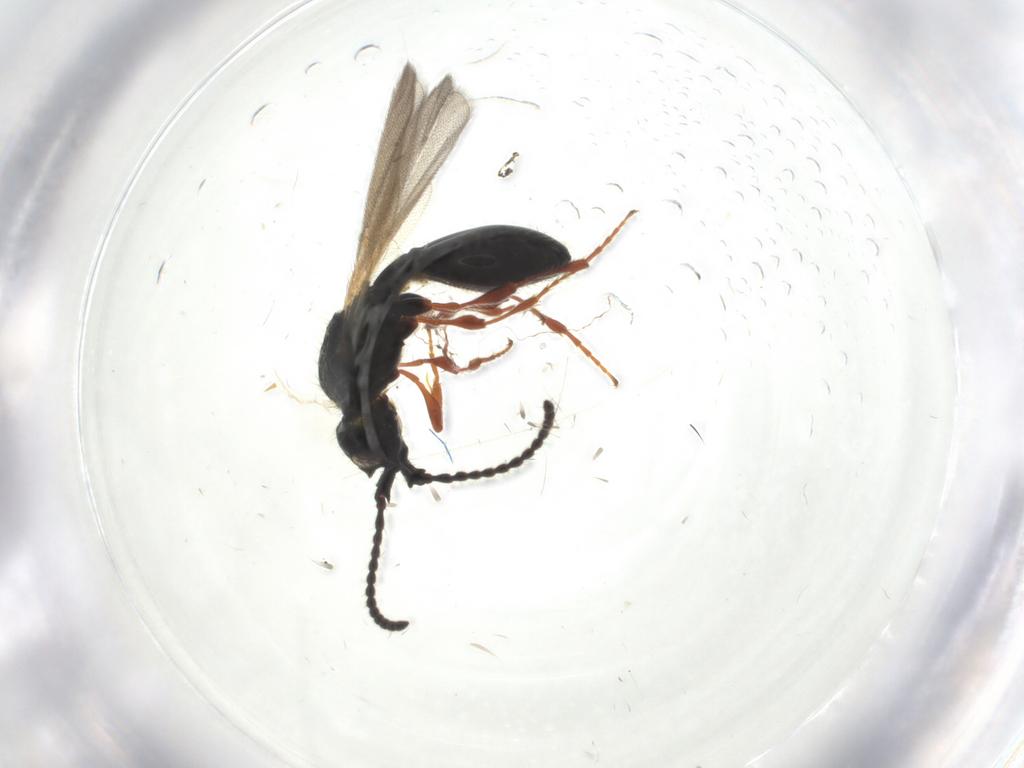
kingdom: Animalia
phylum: Arthropoda
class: Insecta
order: Hymenoptera
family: Diapriidae
